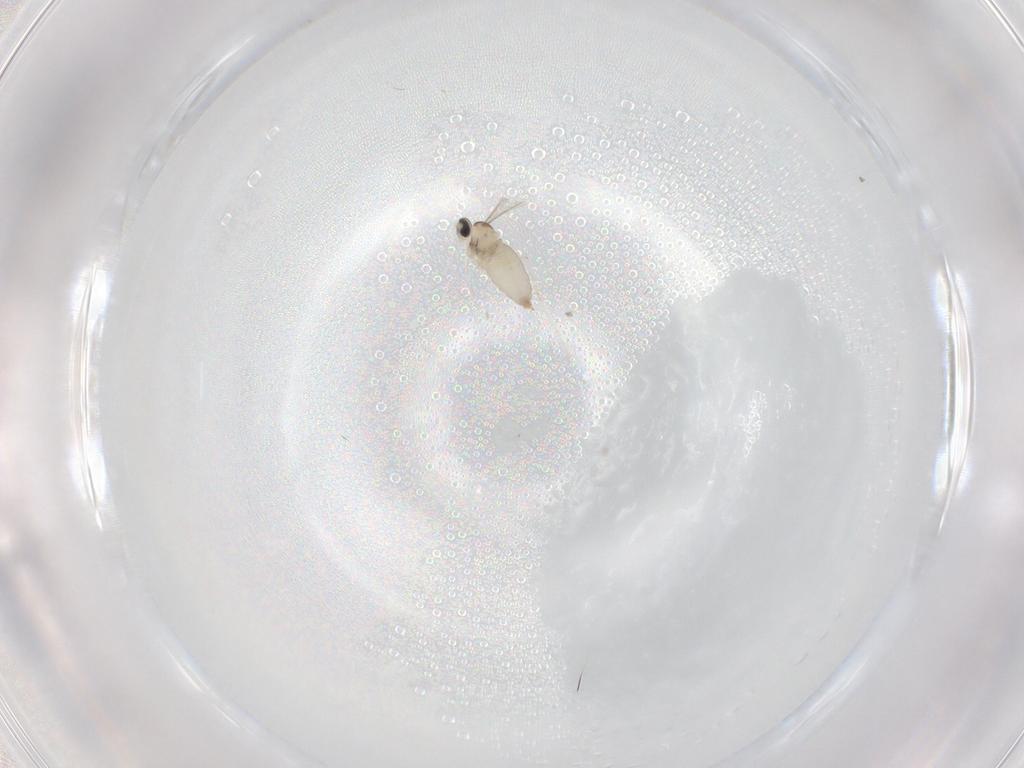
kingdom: Animalia
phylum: Arthropoda
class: Insecta
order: Diptera
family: Cecidomyiidae
